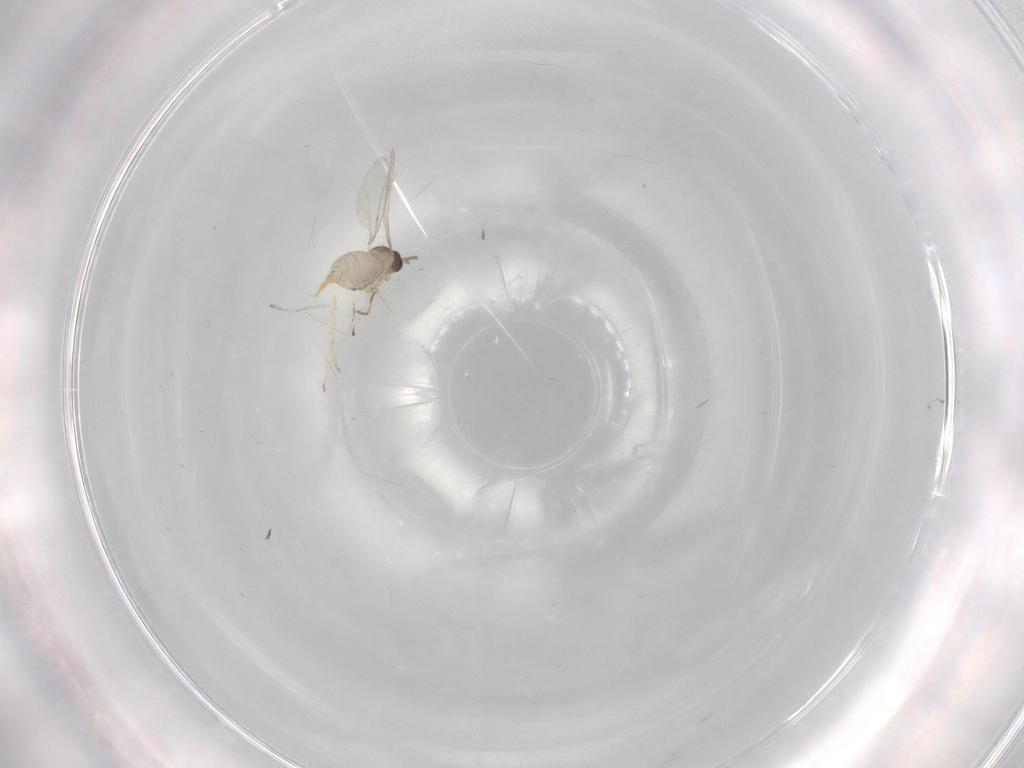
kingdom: Animalia
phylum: Arthropoda
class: Insecta
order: Diptera
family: Cecidomyiidae
